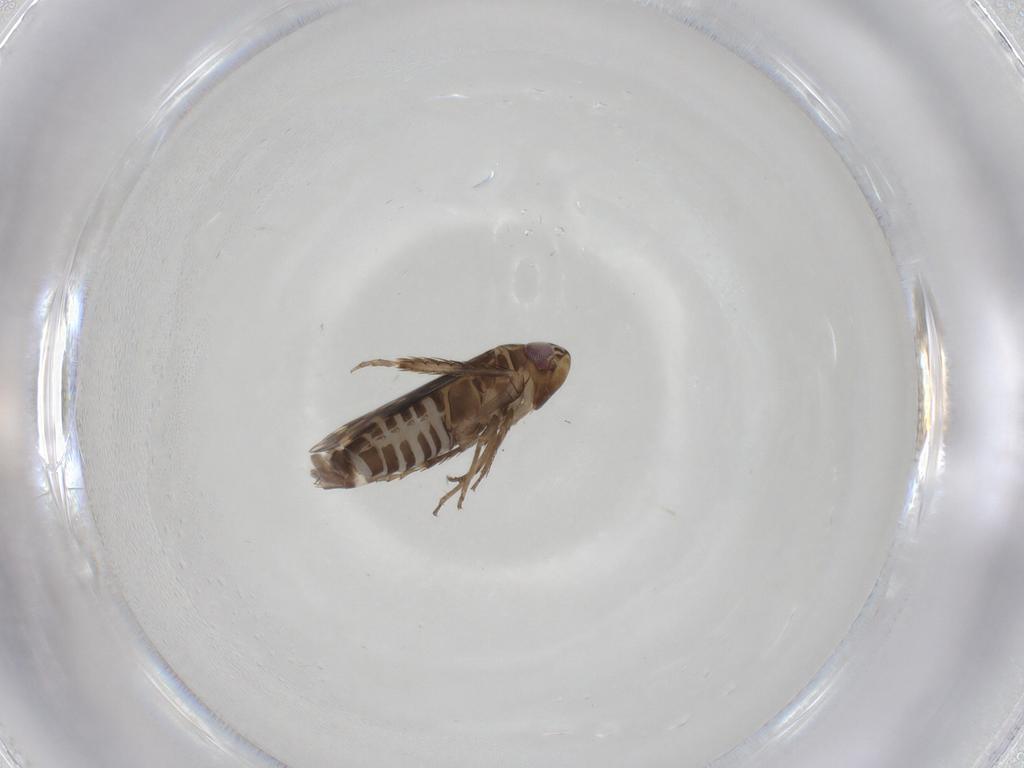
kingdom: Animalia
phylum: Arthropoda
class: Insecta
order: Hemiptera
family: Cicadellidae
